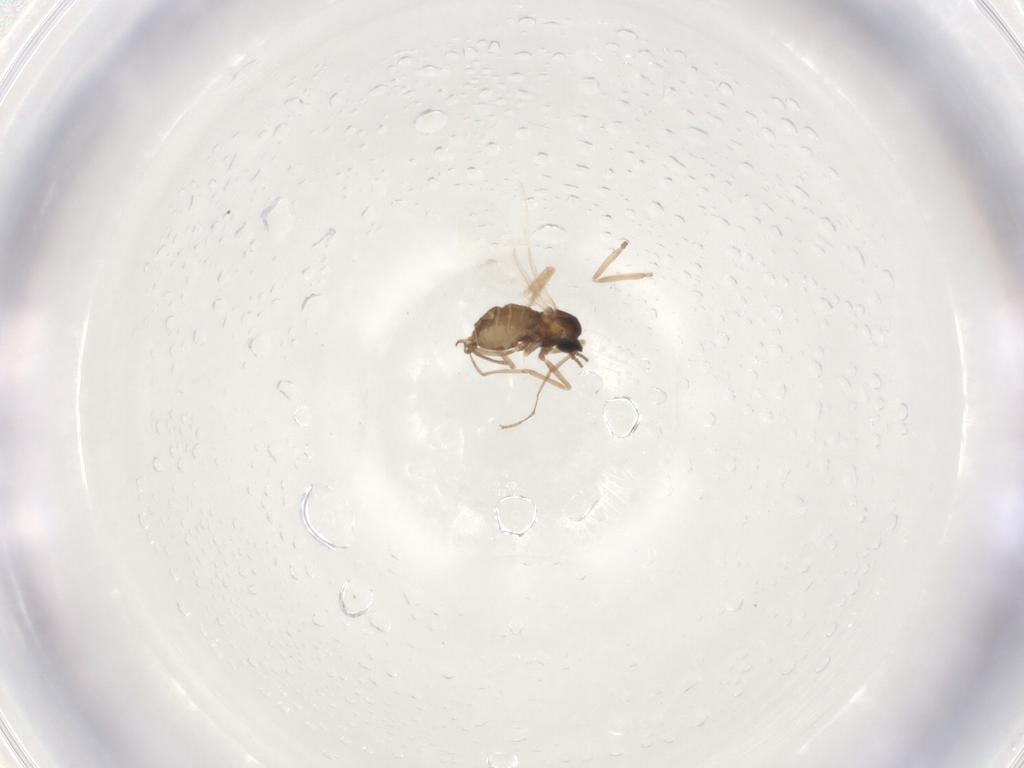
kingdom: Animalia
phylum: Arthropoda
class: Insecta
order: Diptera
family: Cecidomyiidae
